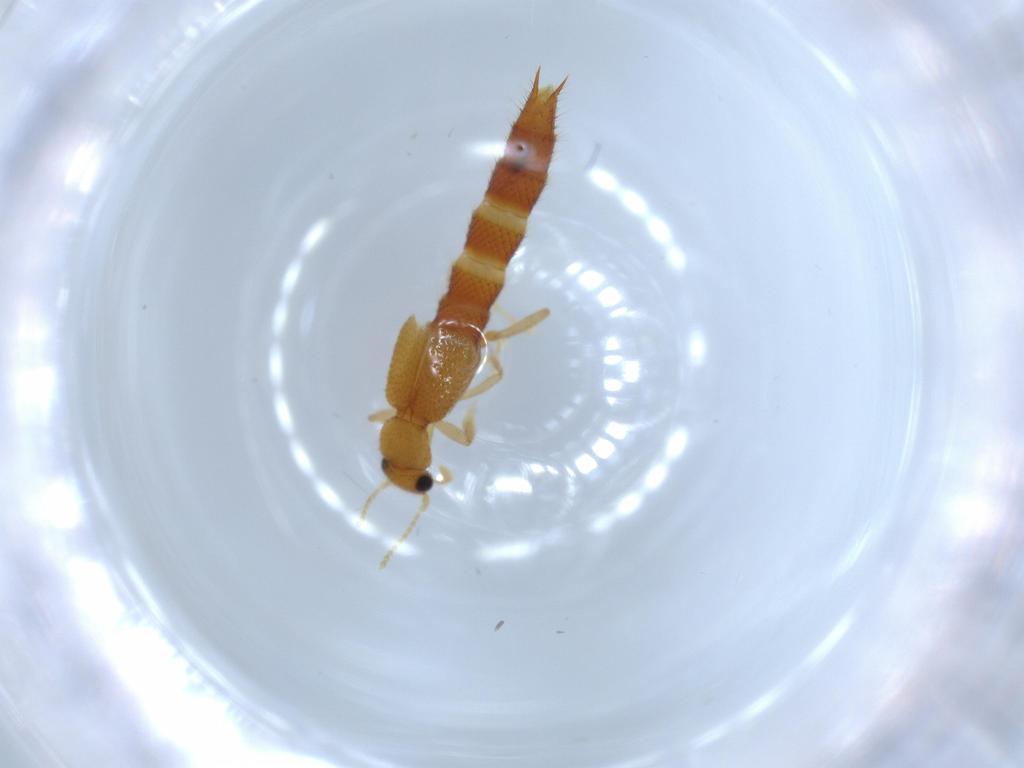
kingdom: Animalia
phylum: Arthropoda
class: Insecta
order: Coleoptera
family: Staphylinidae
